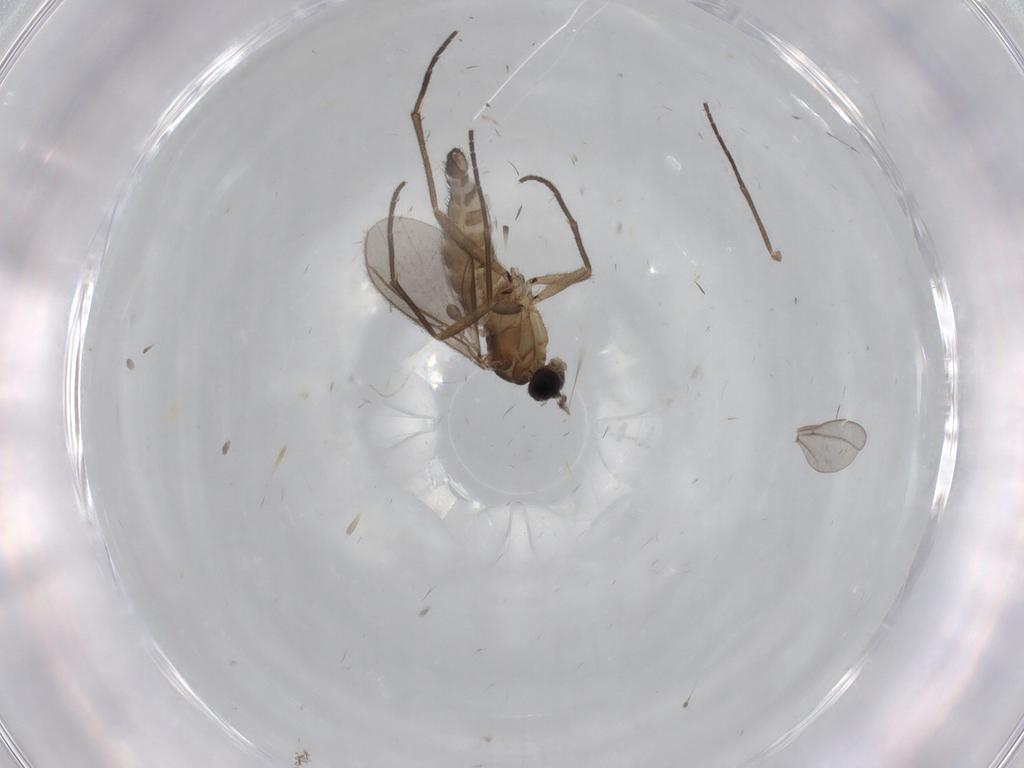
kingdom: Animalia
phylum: Arthropoda
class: Insecta
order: Diptera
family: Sciaridae
